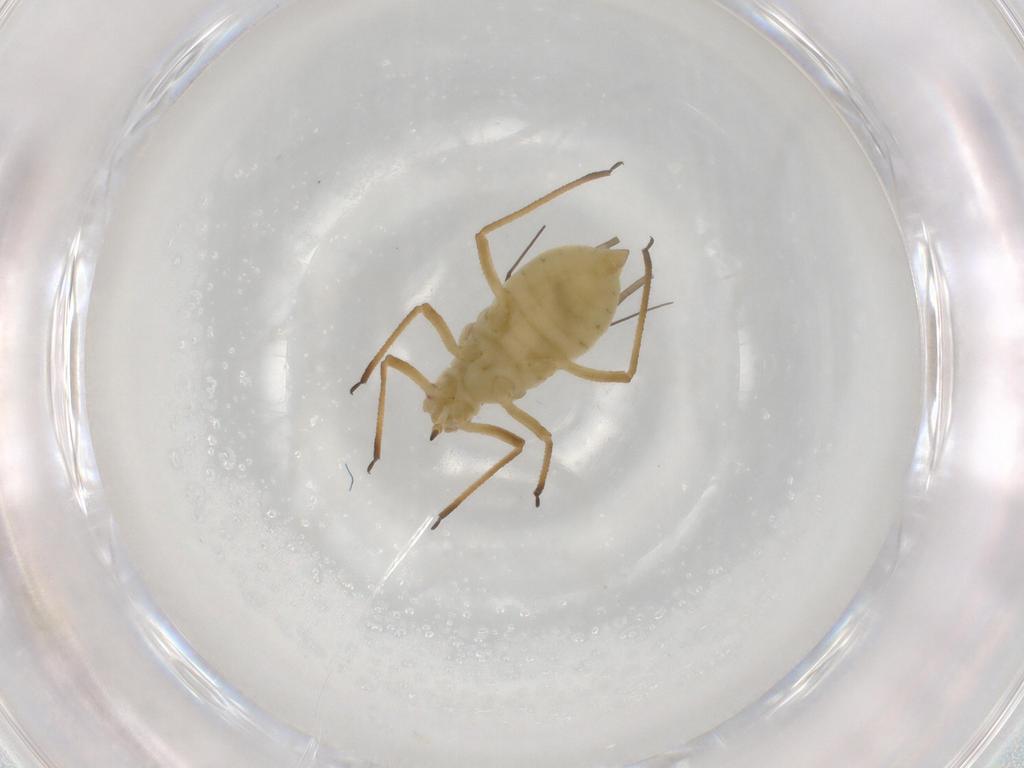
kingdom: Animalia
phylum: Arthropoda
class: Insecta
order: Hemiptera
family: Aphididae
